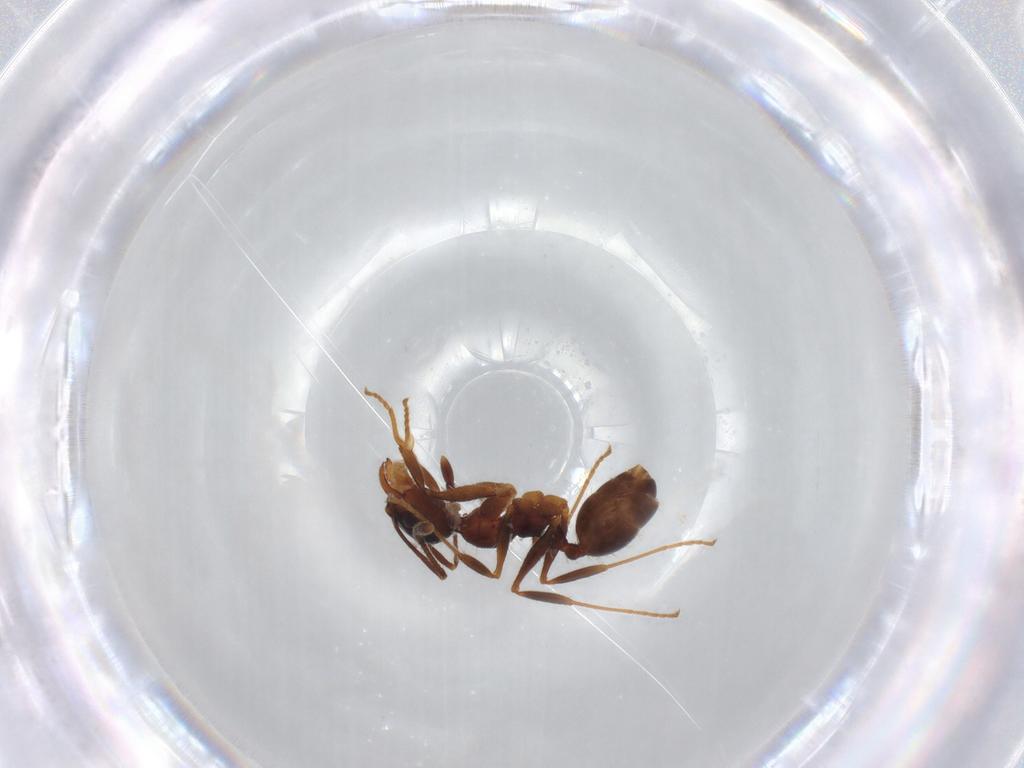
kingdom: Animalia
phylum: Arthropoda
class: Insecta
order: Hymenoptera
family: Formicidae
